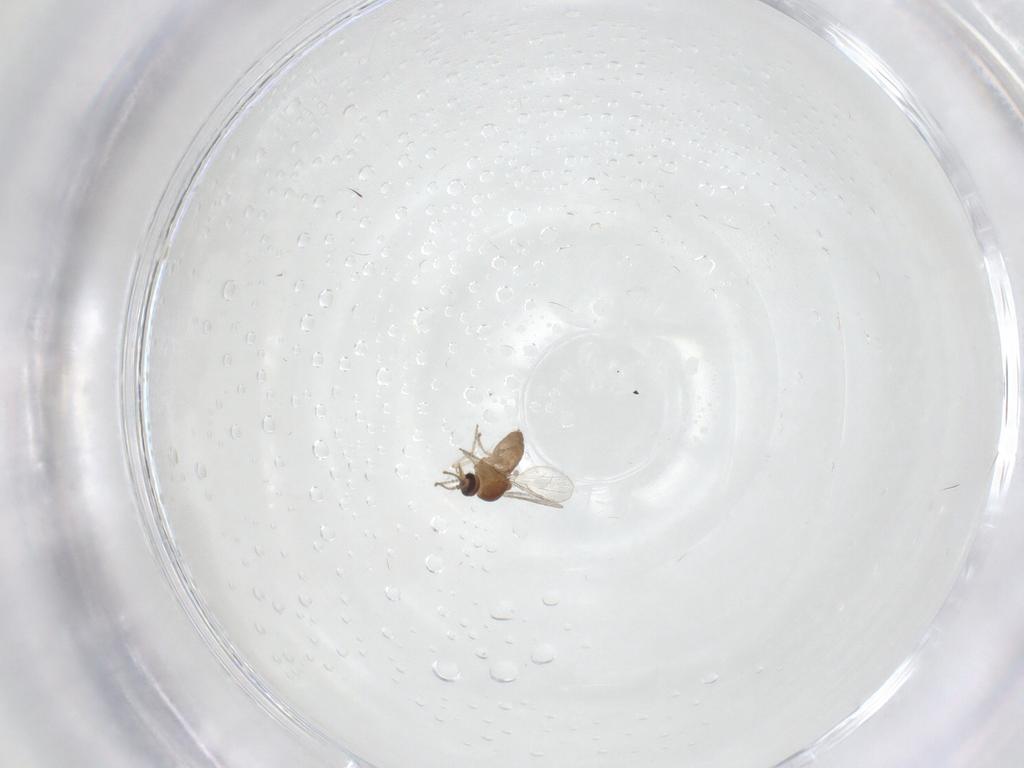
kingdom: Animalia
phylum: Arthropoda
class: Insecta
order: Diptera
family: Ceratopogonidae
